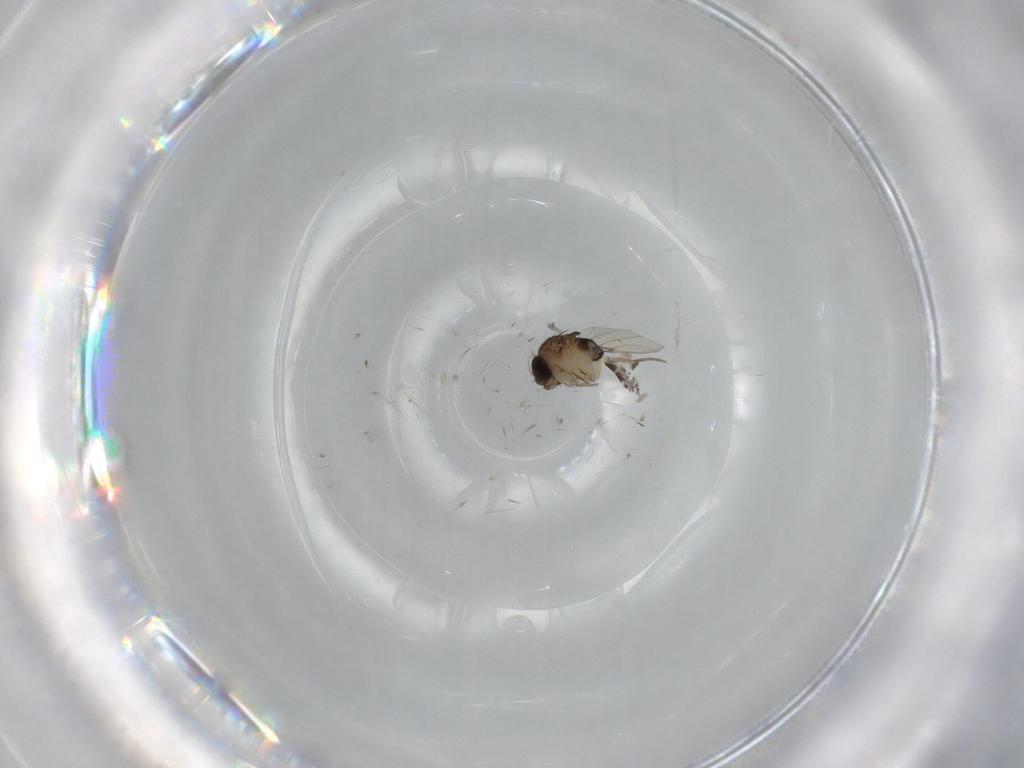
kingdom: Animalia
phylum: Arthropoda
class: Insecta
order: Diptera
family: Phoridae
